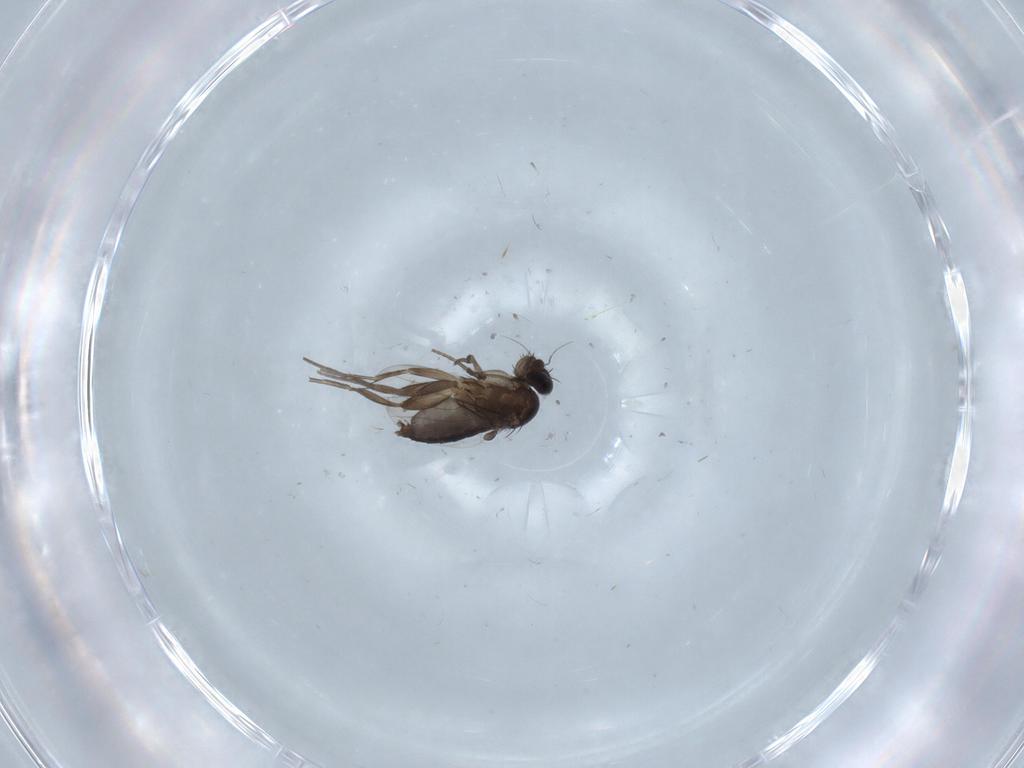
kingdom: Animalia
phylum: Arthropoda
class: Insecta
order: Diptera
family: Phoridae
